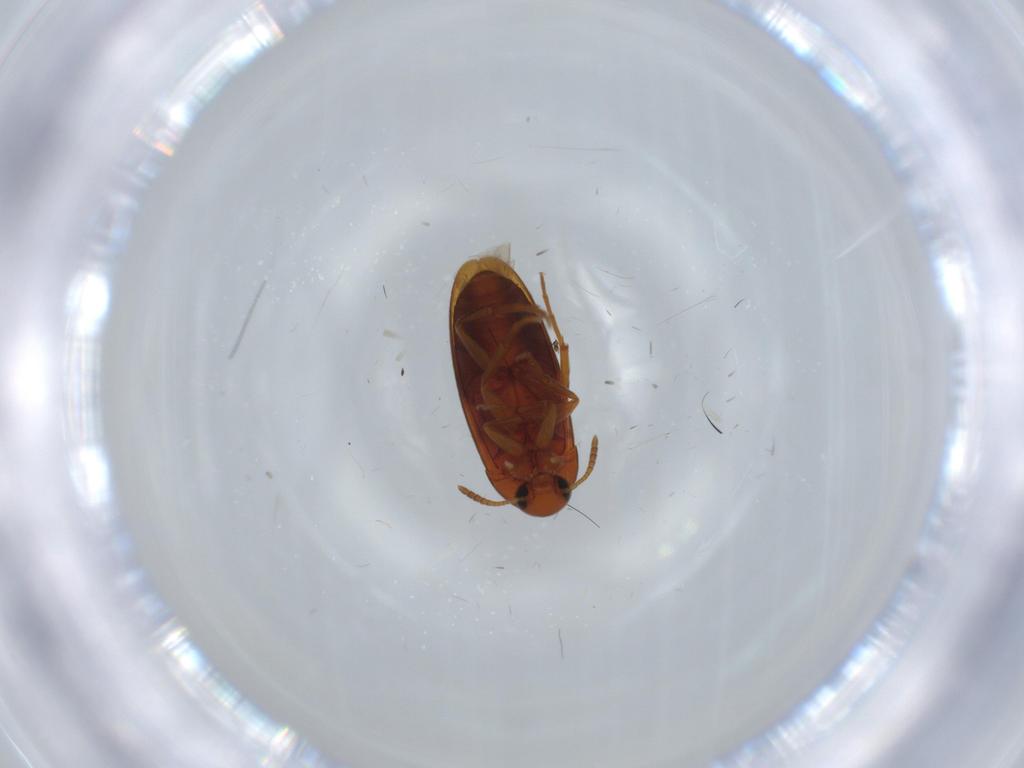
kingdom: Animalia
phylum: Arthropoda
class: Insecta
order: Coleoptera
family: Scraptiidae
